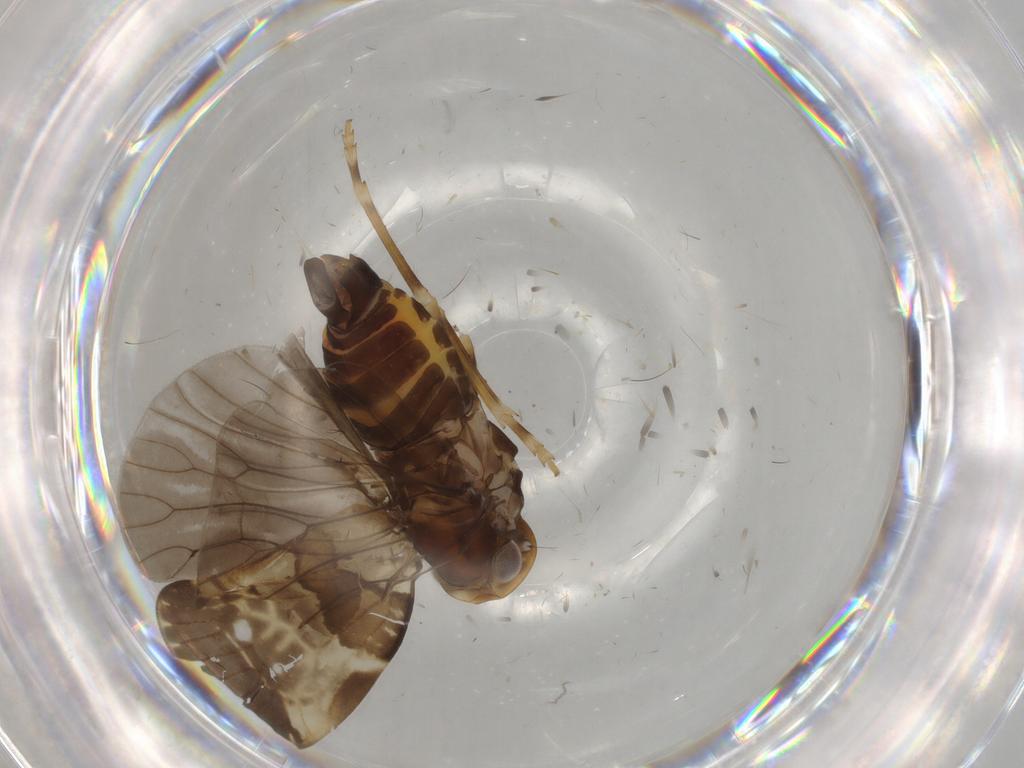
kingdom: Animalia
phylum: Arthropoda
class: Insecta
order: Hemiptera
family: Cixiidae
